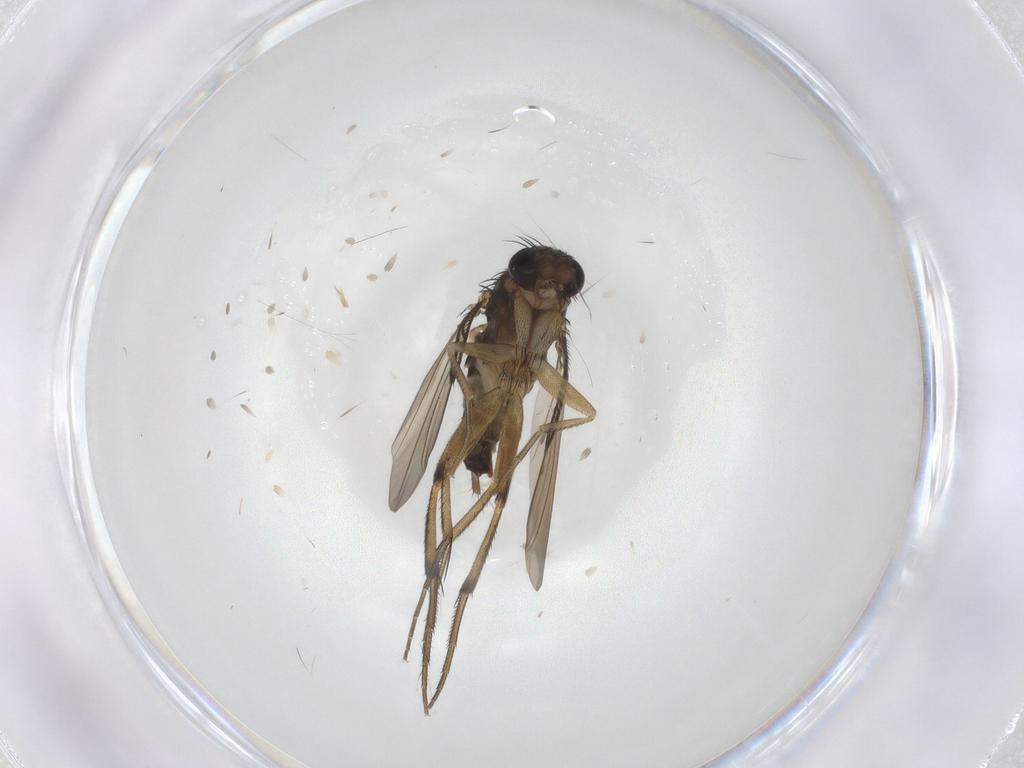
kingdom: Animalia
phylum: Arthropoda
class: Insecta
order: Diptera
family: Phoridae
